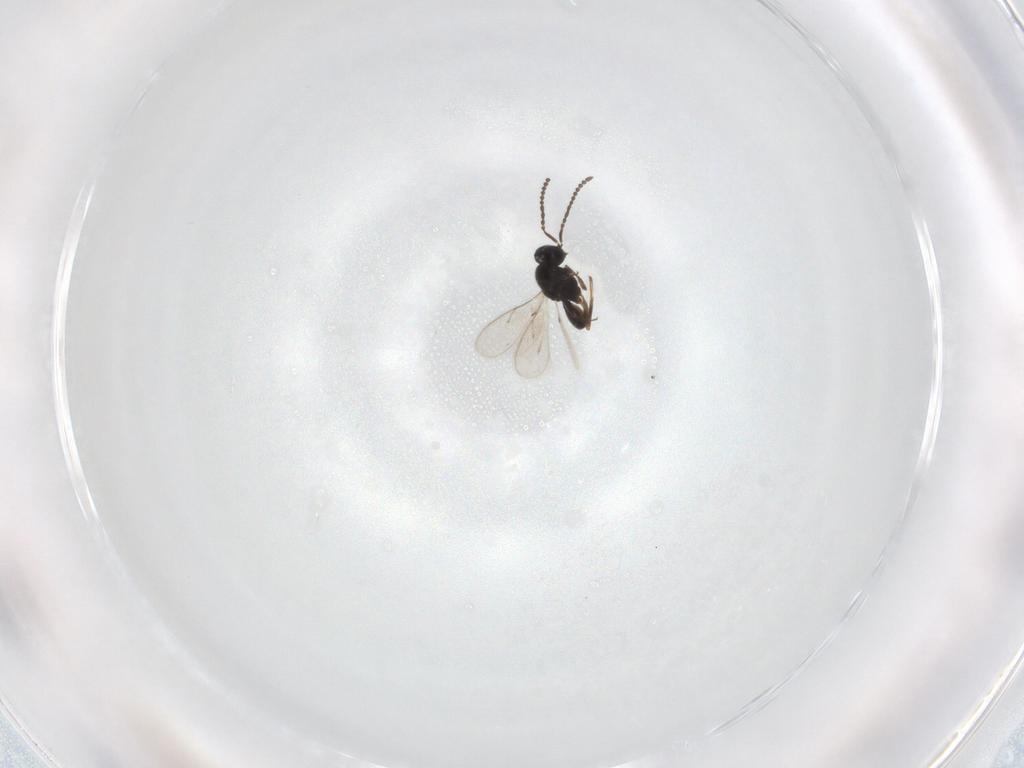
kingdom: Animalia
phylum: Arthropoda
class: Insecta
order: Hymenoptera
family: Scelionidae
